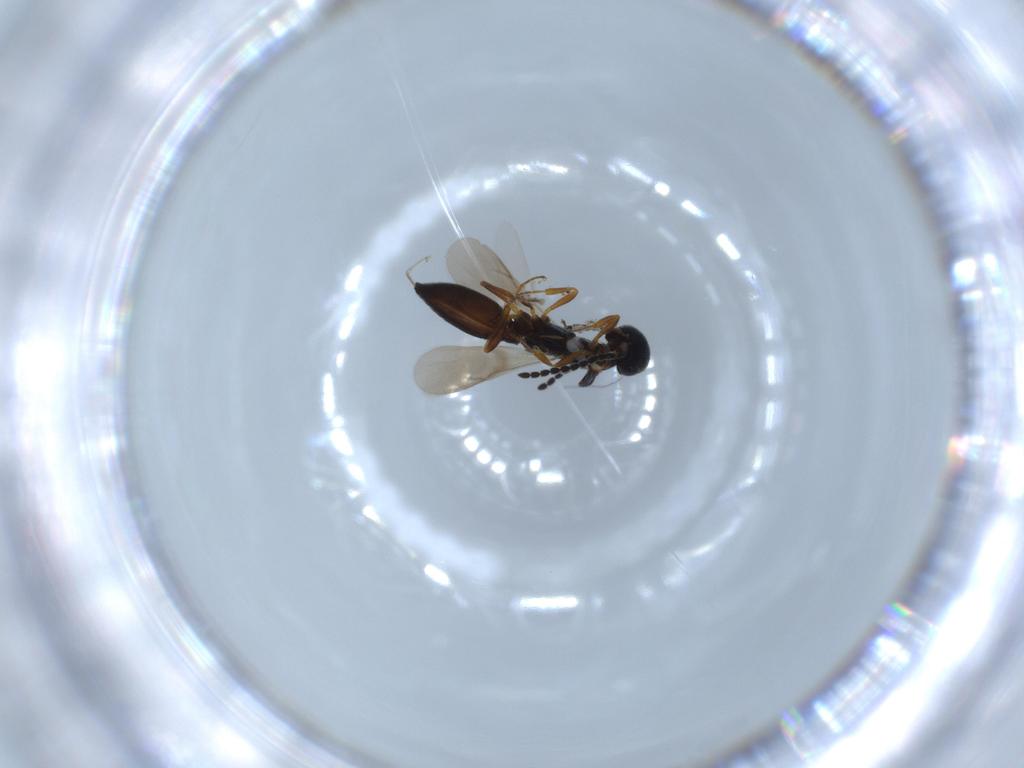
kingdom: Animalia
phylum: Arthropoda
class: Insecta
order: Hymenoptera
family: Scelionidae
